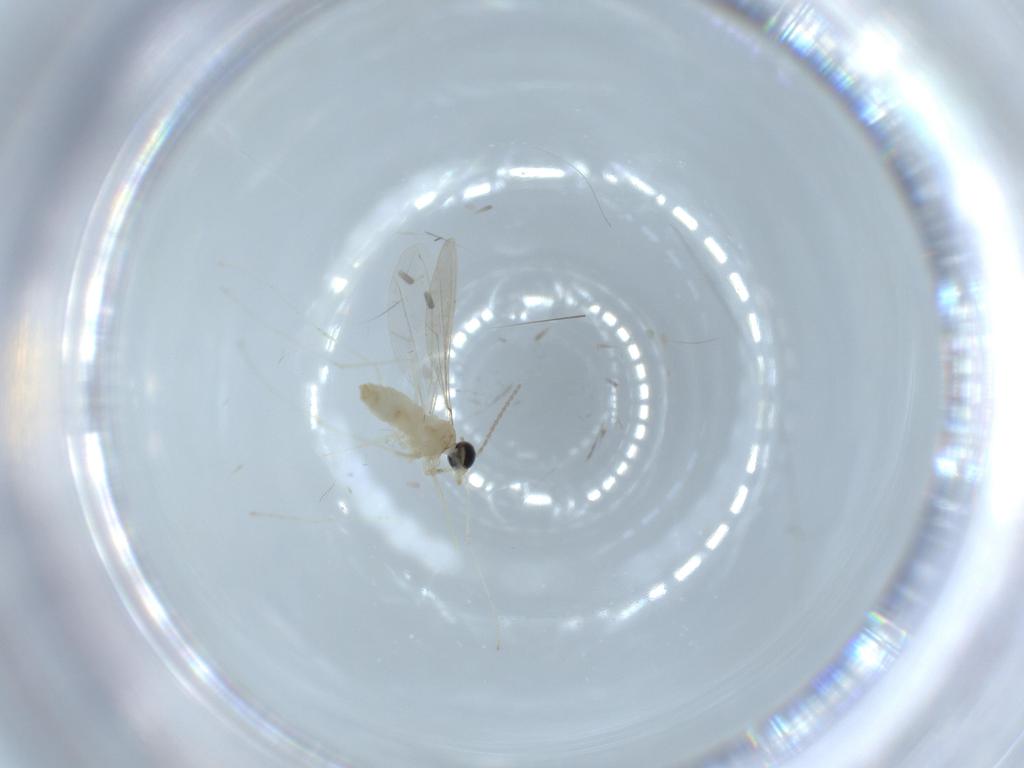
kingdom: Animalia
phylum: Arthropoda
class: Insecta
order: Diptera
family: Cecidomyiidae
